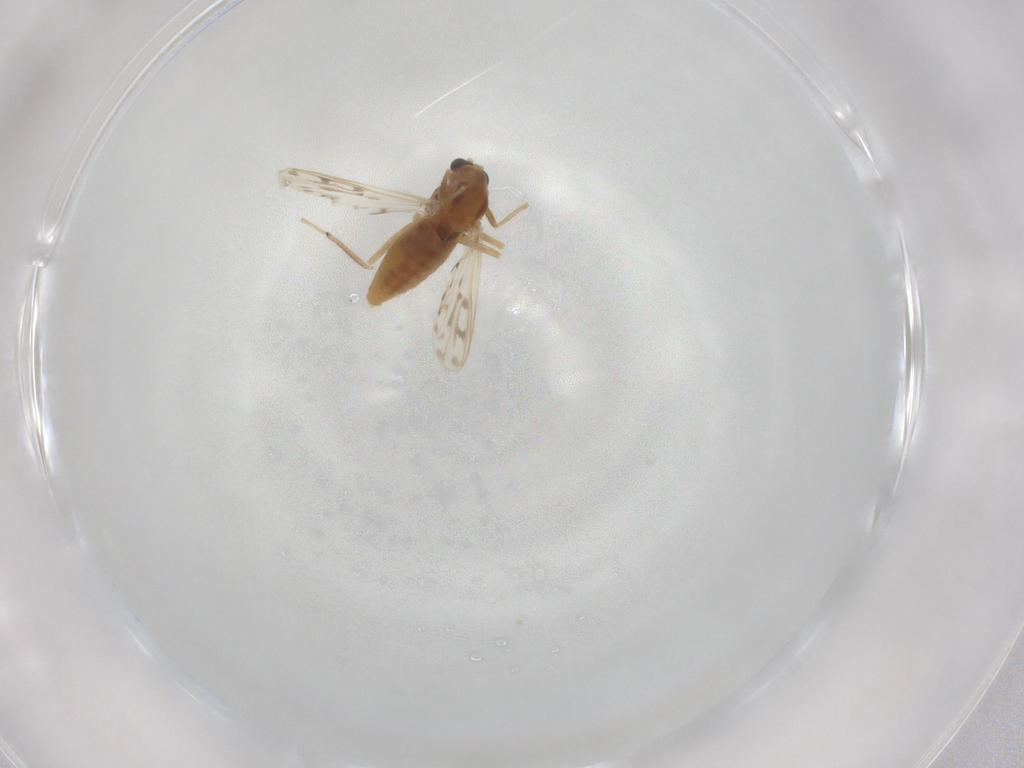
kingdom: Animalia
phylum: Arthropoda
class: Insecta
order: Diptera
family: Chironomidae
